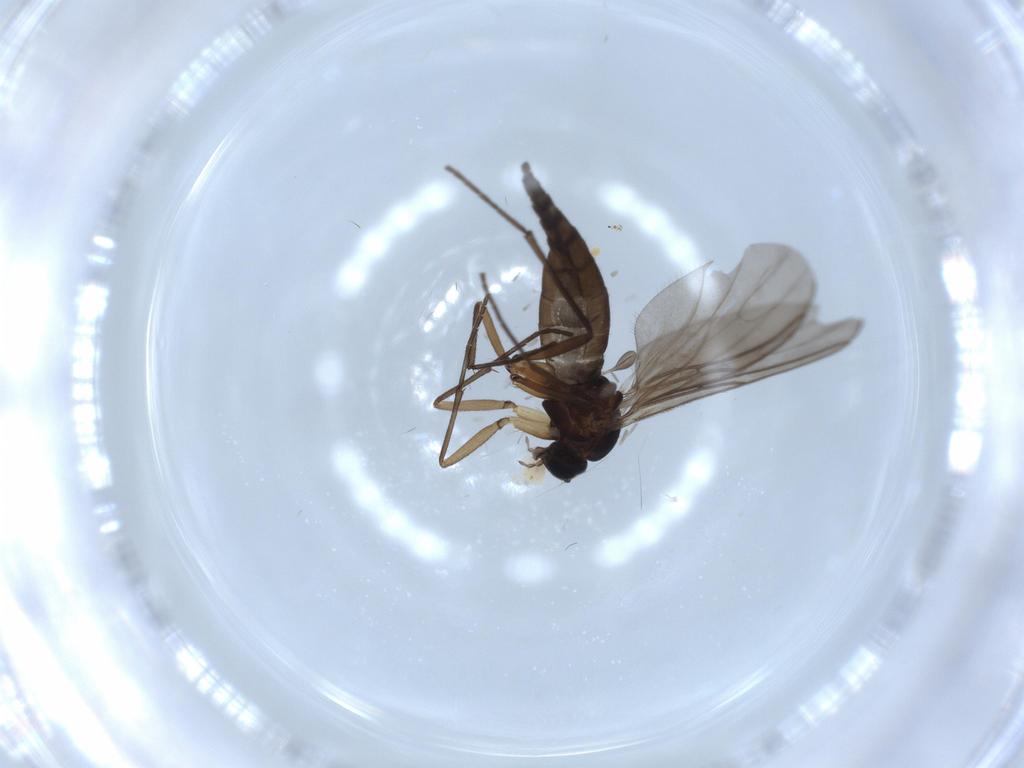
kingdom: Animalia
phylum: Arthropoda
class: Insecta
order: Diptera
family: Sciaridae
